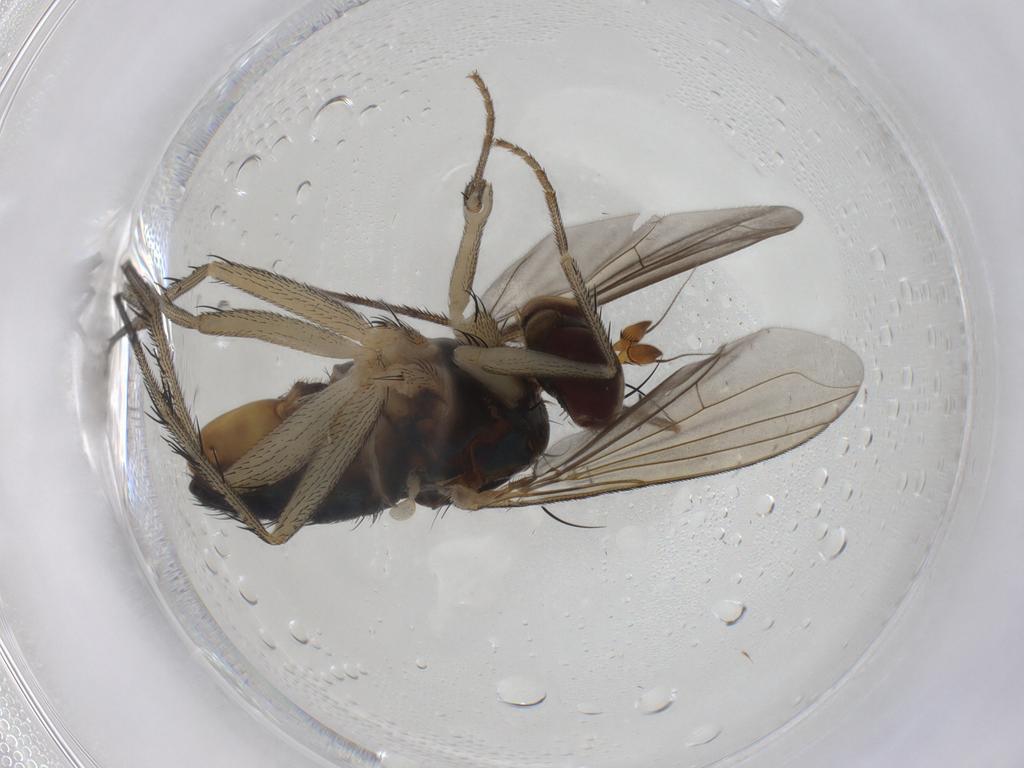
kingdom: Animalia
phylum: Arthropoda
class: Insecta
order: Diptera
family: Dolichopodidae
